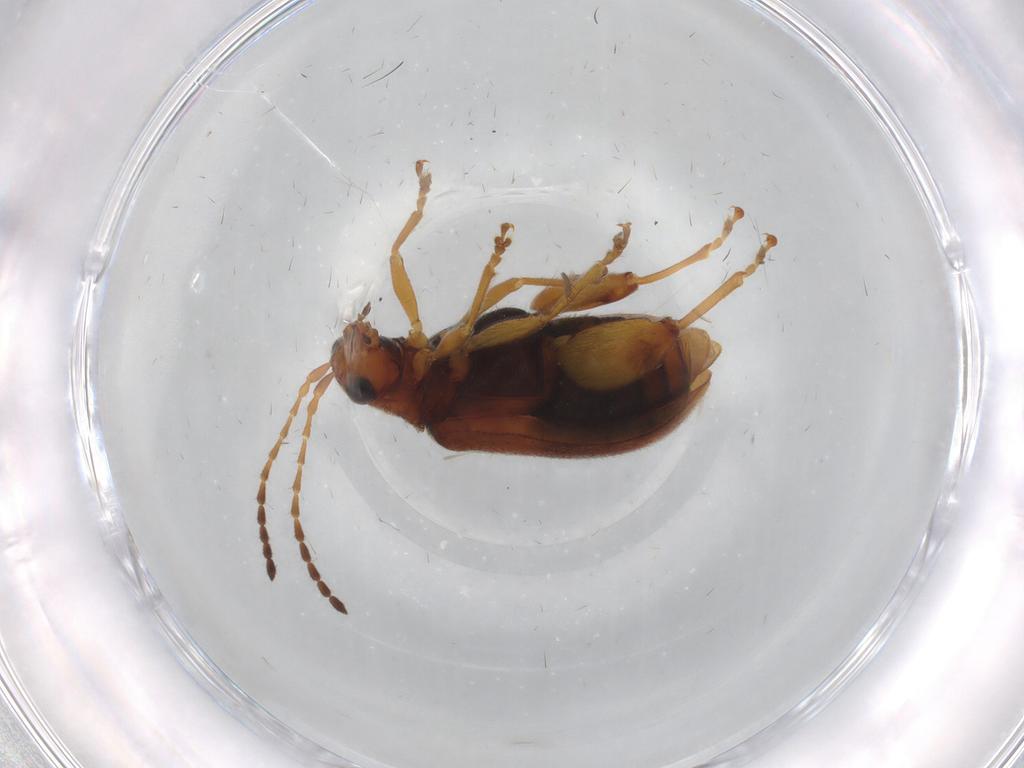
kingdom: Animalia
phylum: Arthropoda
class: Insecta
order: Coleoptera
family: Chrysomelidae
